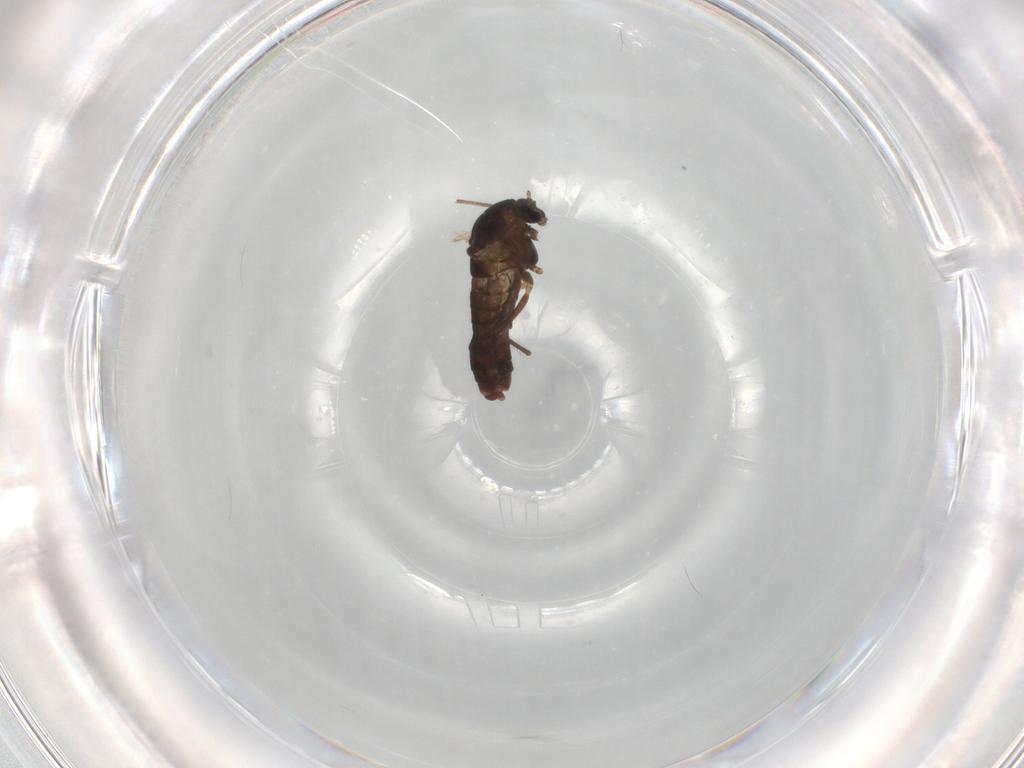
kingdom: Animalia
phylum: Arthropoda
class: Insecta
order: Diptera
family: Chironomidae
